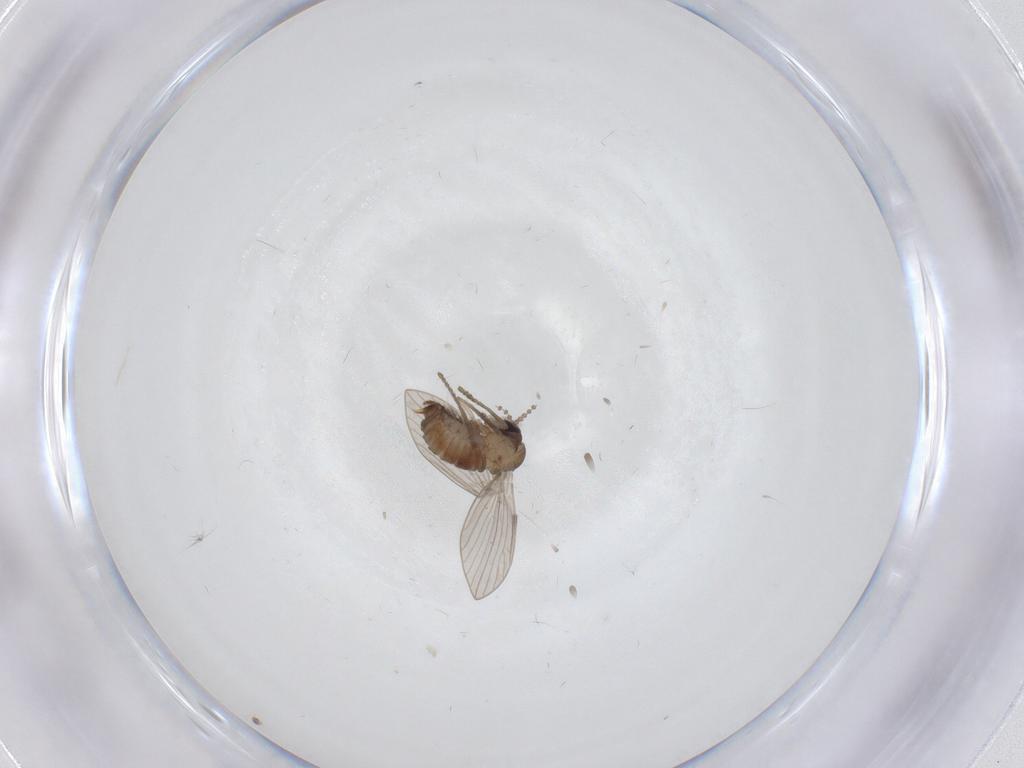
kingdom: Animalia
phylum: Arthropoda
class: Insecta
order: Diptera
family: Psychodidae
